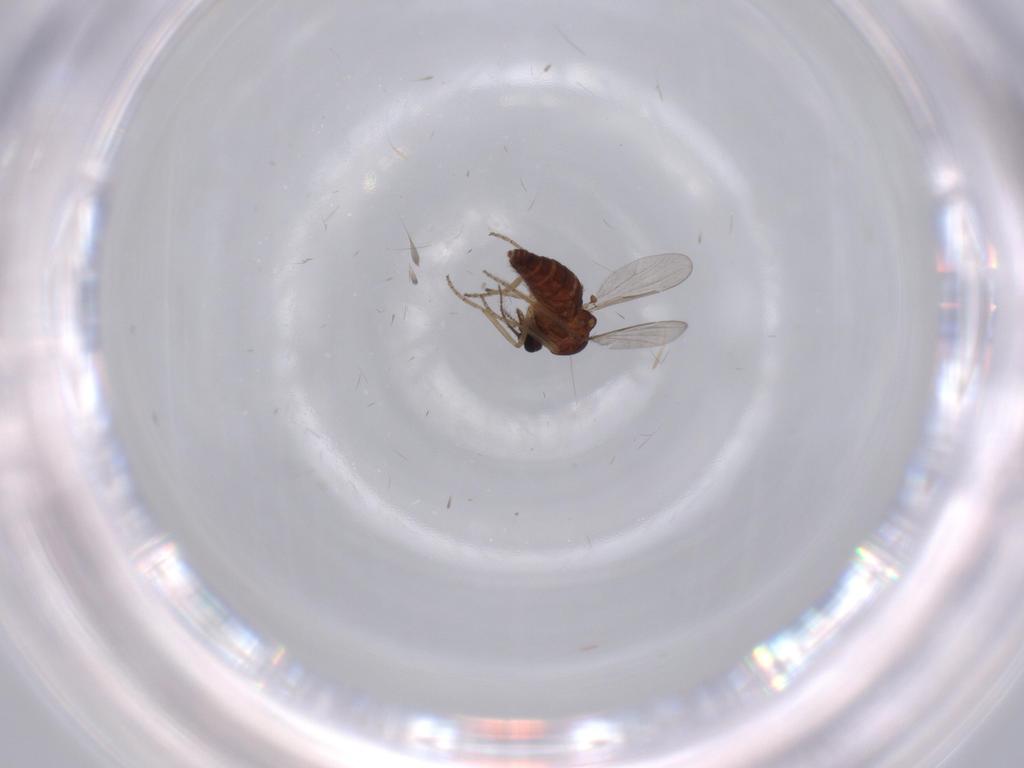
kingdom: Animalia
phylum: Arthropoda
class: Insecta
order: Diptera
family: Ceratopogonidae
